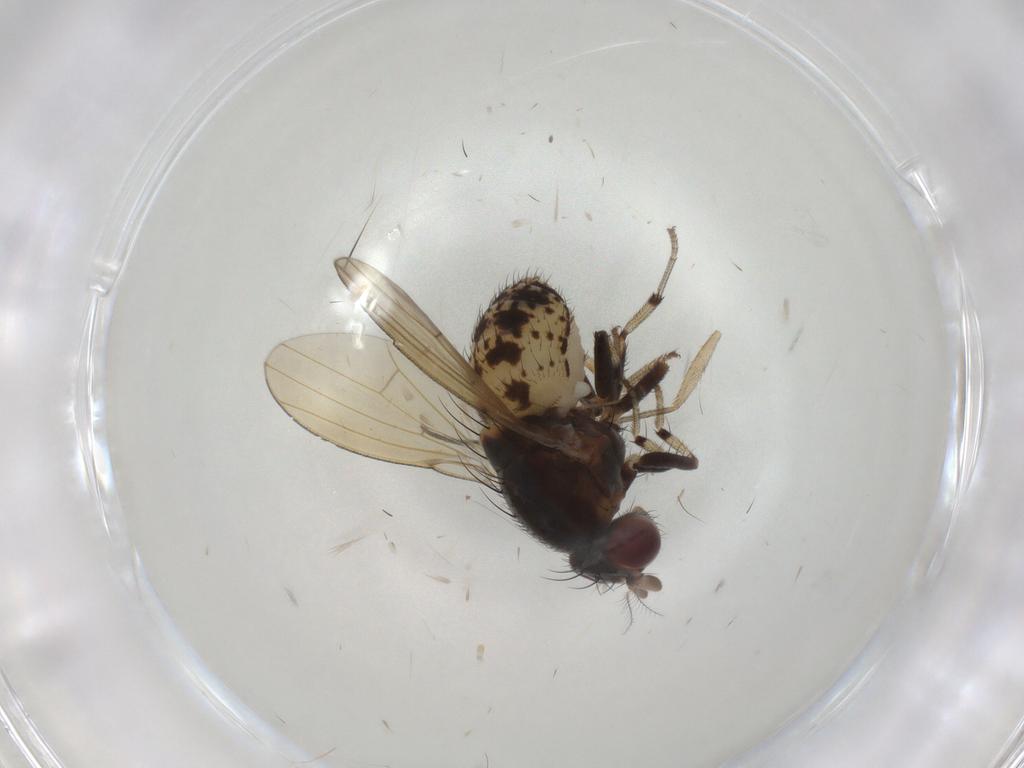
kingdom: Animalia
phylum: Arthropoda
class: Insecta
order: Diptera
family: Sciaridae
